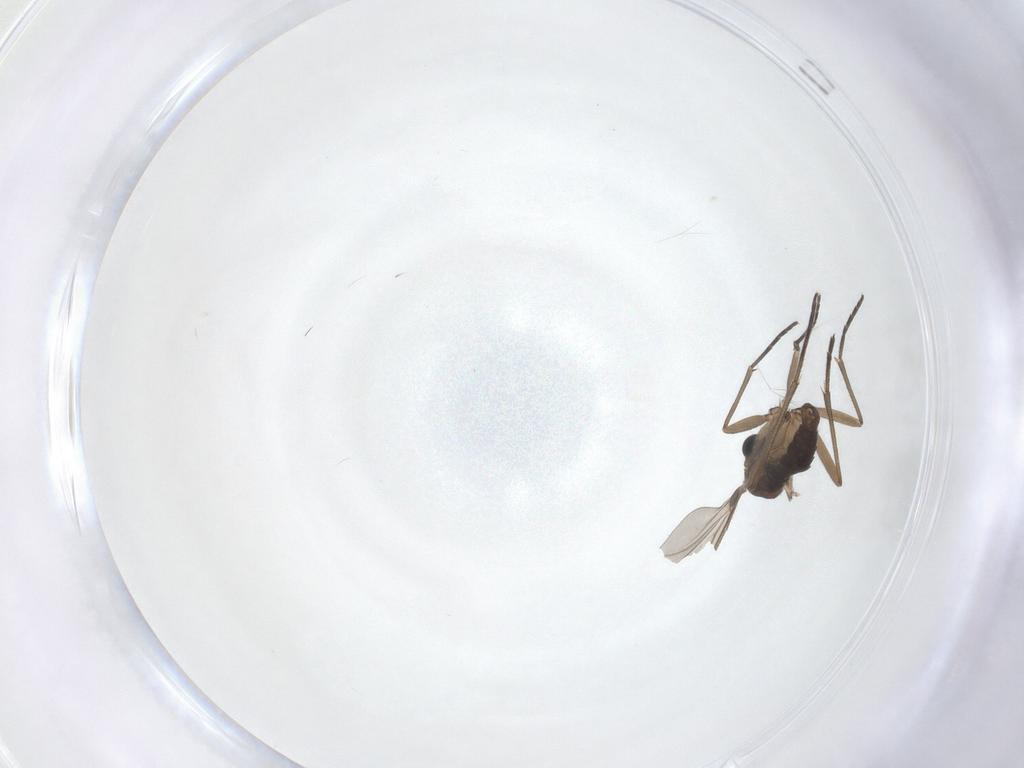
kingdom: Animalia
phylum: Arthropoda
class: Insecta
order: Diptera
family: Sciaridae
